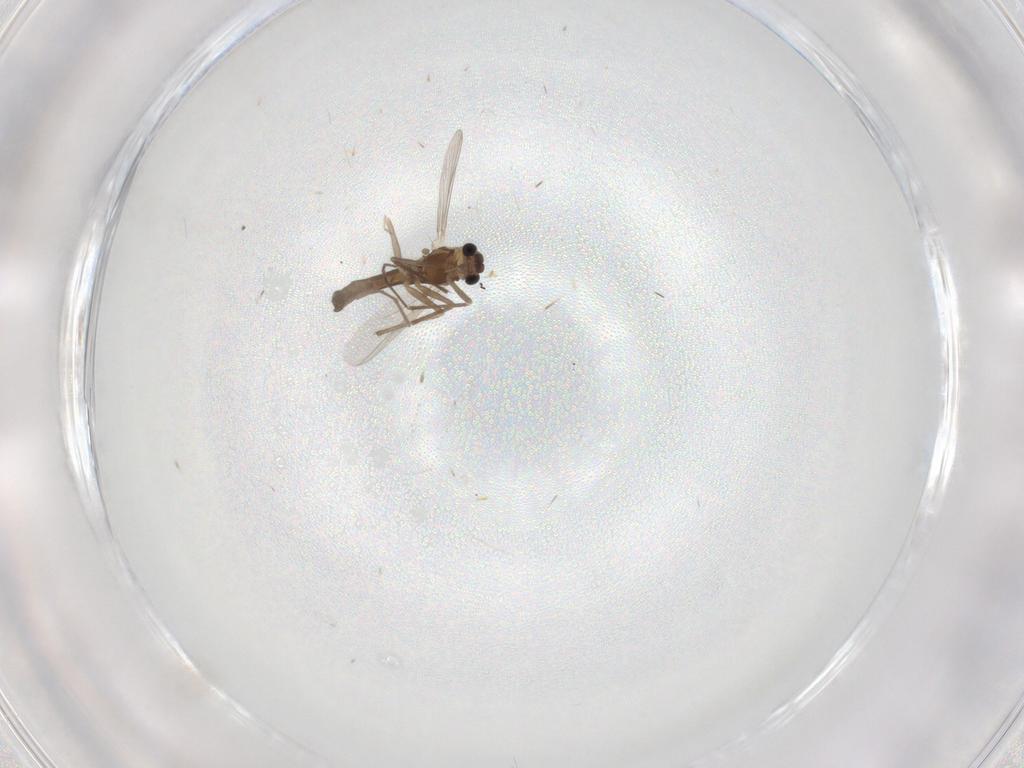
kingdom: Animalia
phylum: Arthropoda
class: Insecta
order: Diptera
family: Chironomidae
